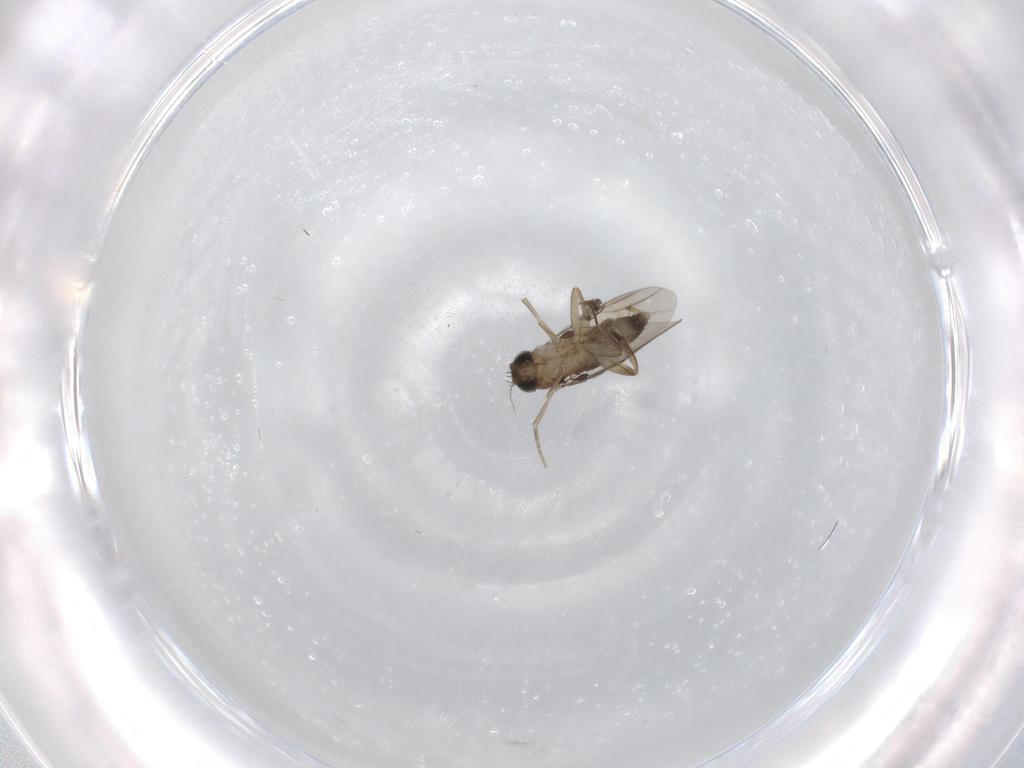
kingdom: Animalia
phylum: Arthropoda
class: Insecta
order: Diptera
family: Phoridae
